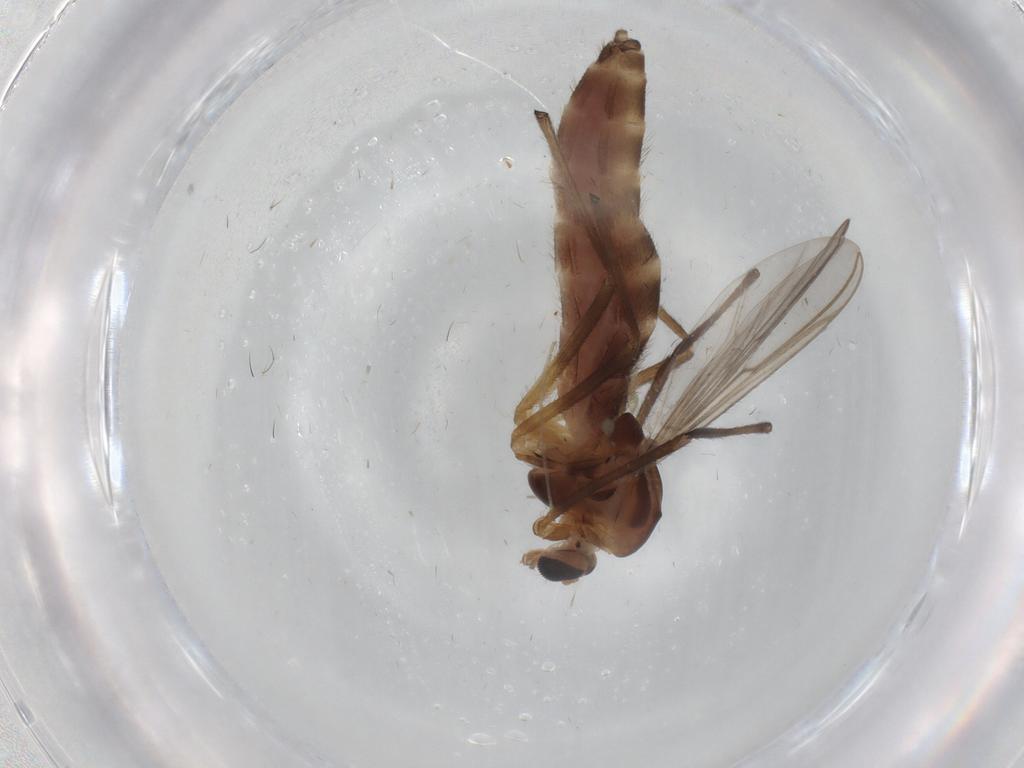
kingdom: Animalia
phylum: Arthropoda
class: Insecta
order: Diptera
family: Chironomidae
